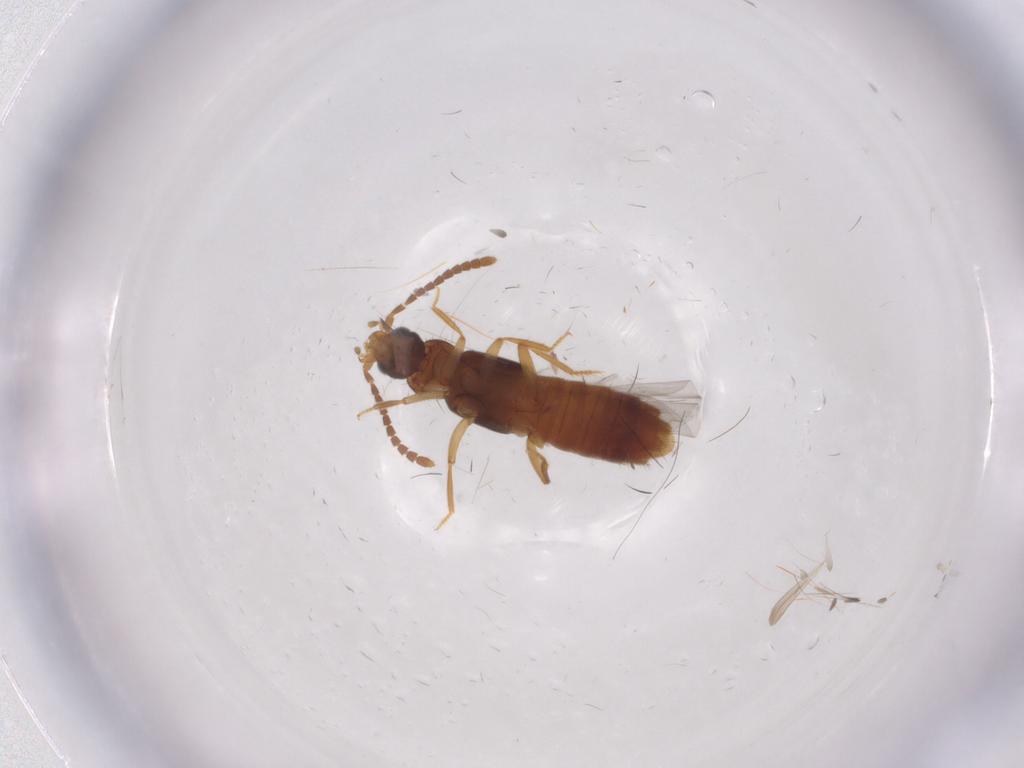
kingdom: Animalia
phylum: Arthropoda
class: Insecta
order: Coleoptera
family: Staphylinidae
